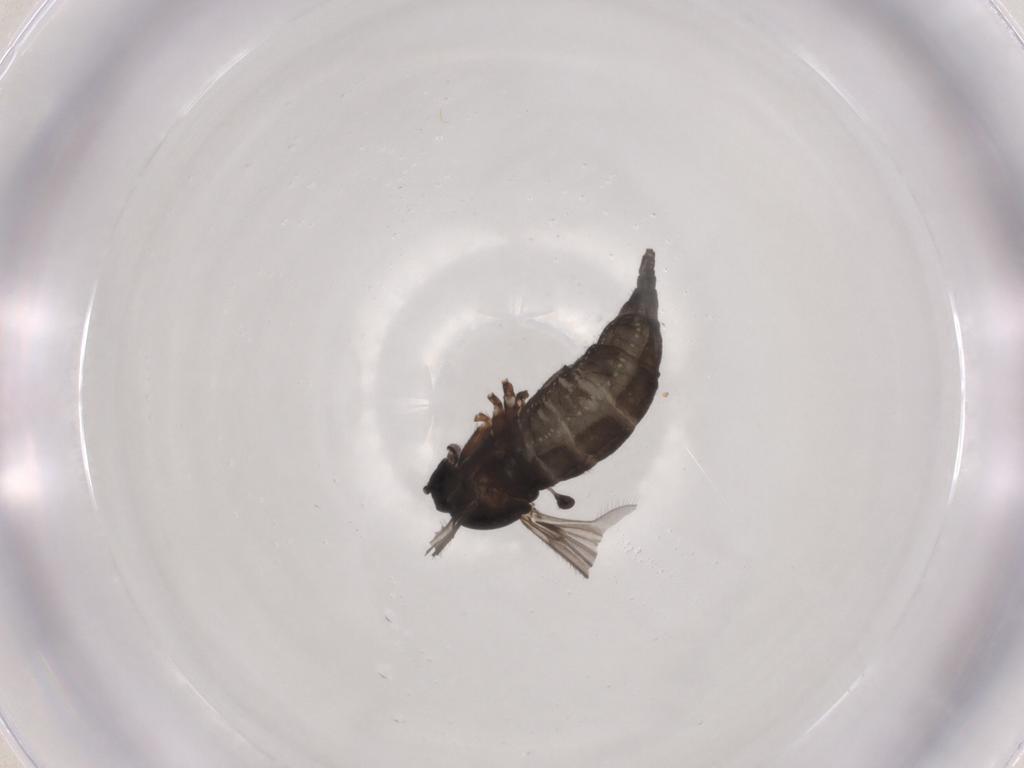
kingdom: Animalia
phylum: Arthropoda
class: Insecta
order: Diptera
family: Sciaridae
